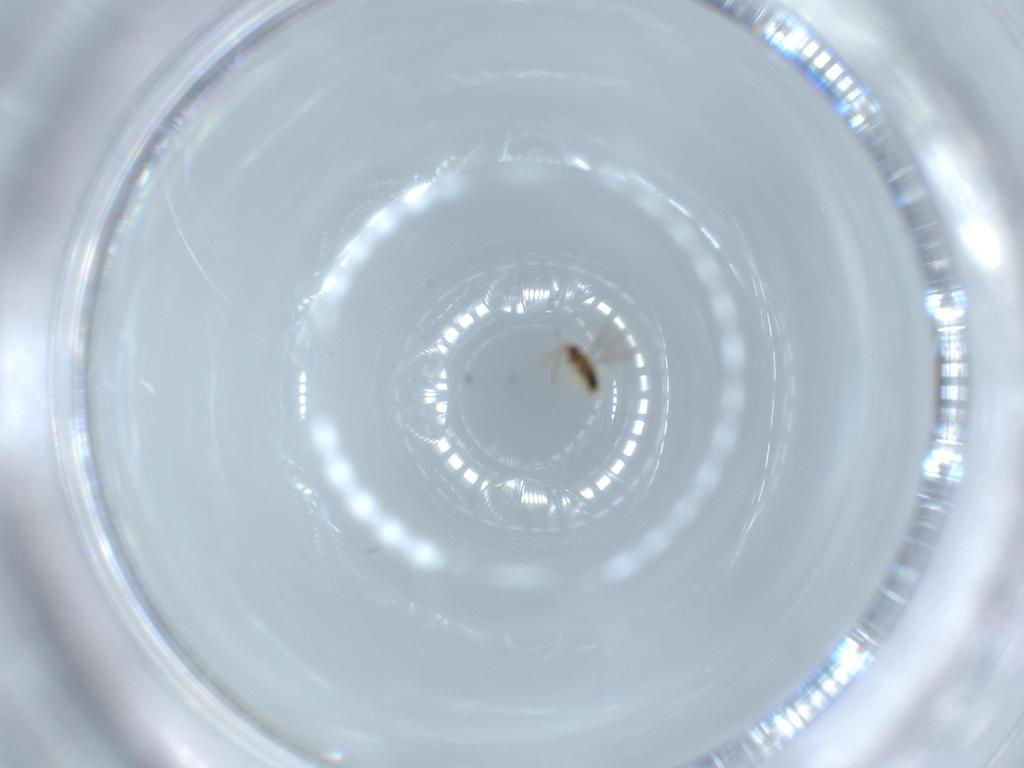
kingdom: Animalia
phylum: Arthropoda
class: Insecta
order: Hymenoptera
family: Aphelinidae
